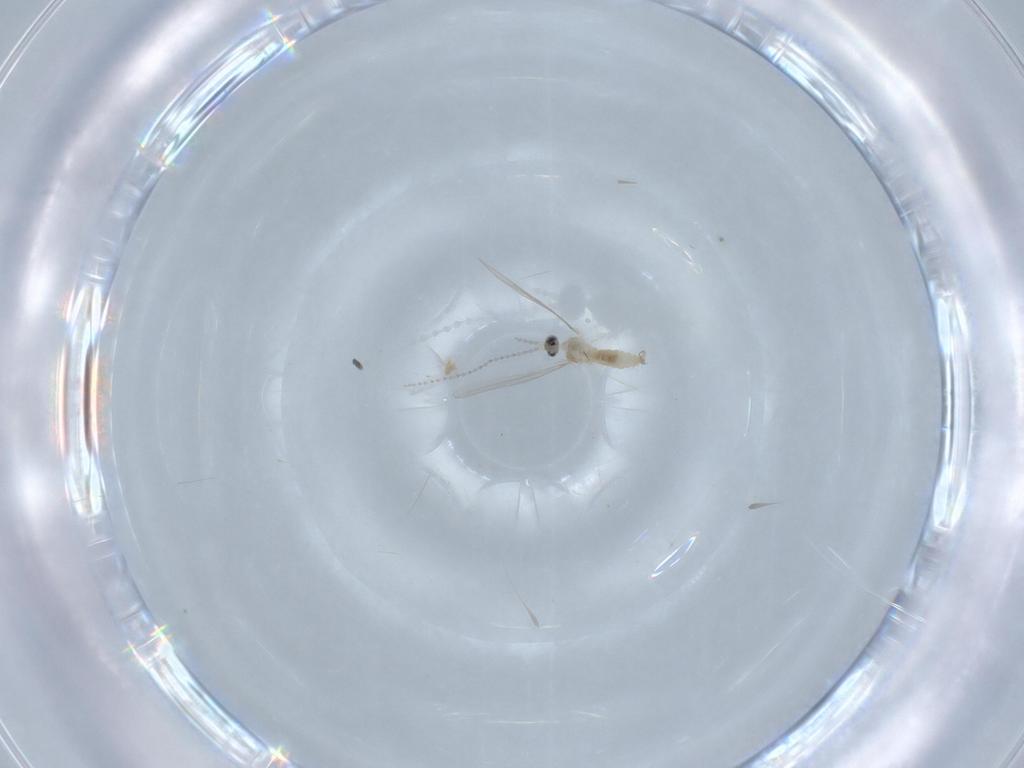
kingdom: Animalia
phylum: Arthropoda
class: Insecta
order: Diptera
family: Cecidomyiidae
